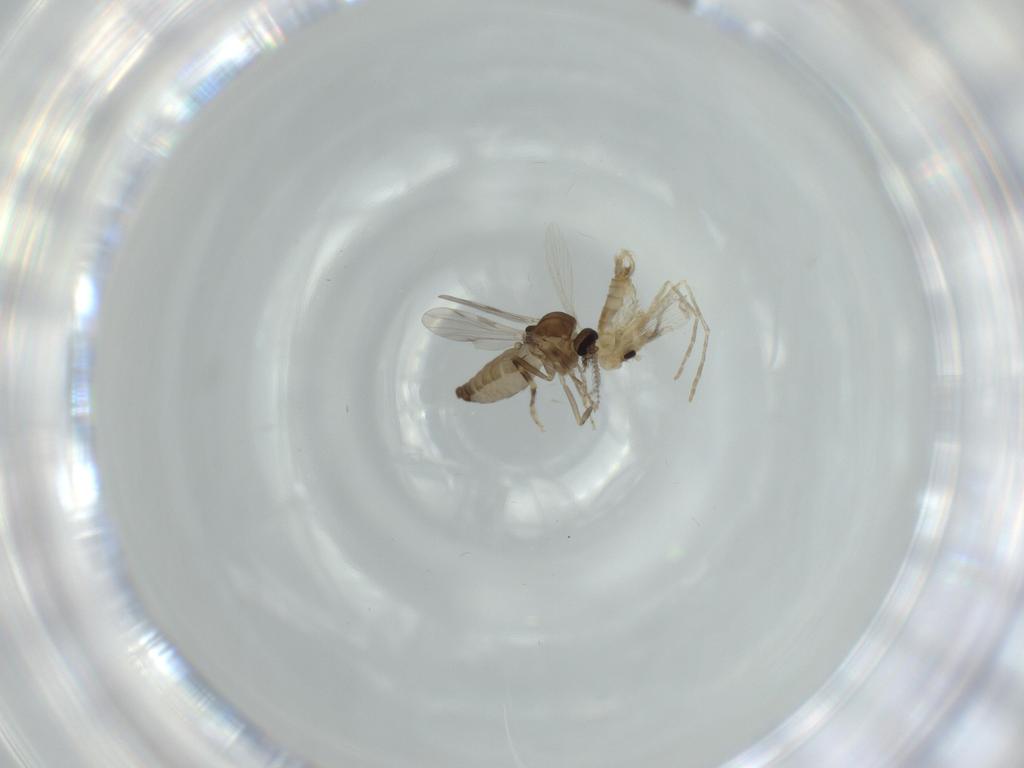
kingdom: Animalia
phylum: Arthropoda
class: Insecta
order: Diptera
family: Ceratopogonidae
